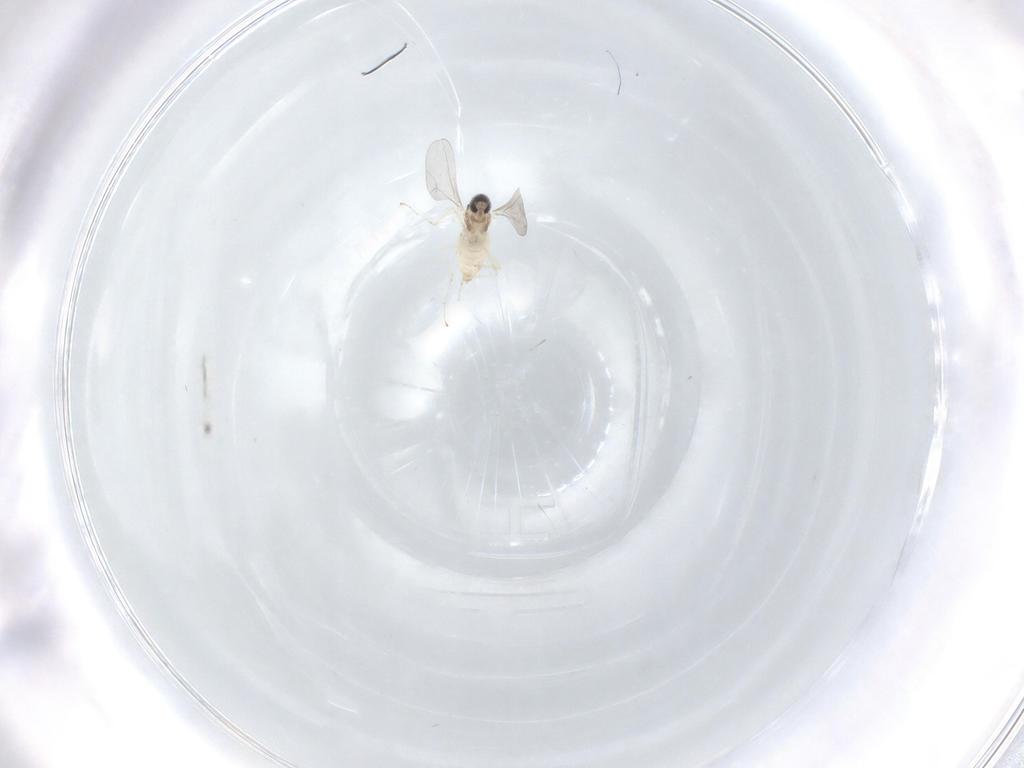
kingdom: Animalia
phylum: Arthropoda
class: Insecta
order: Diptera
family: Cecidomyiidae
